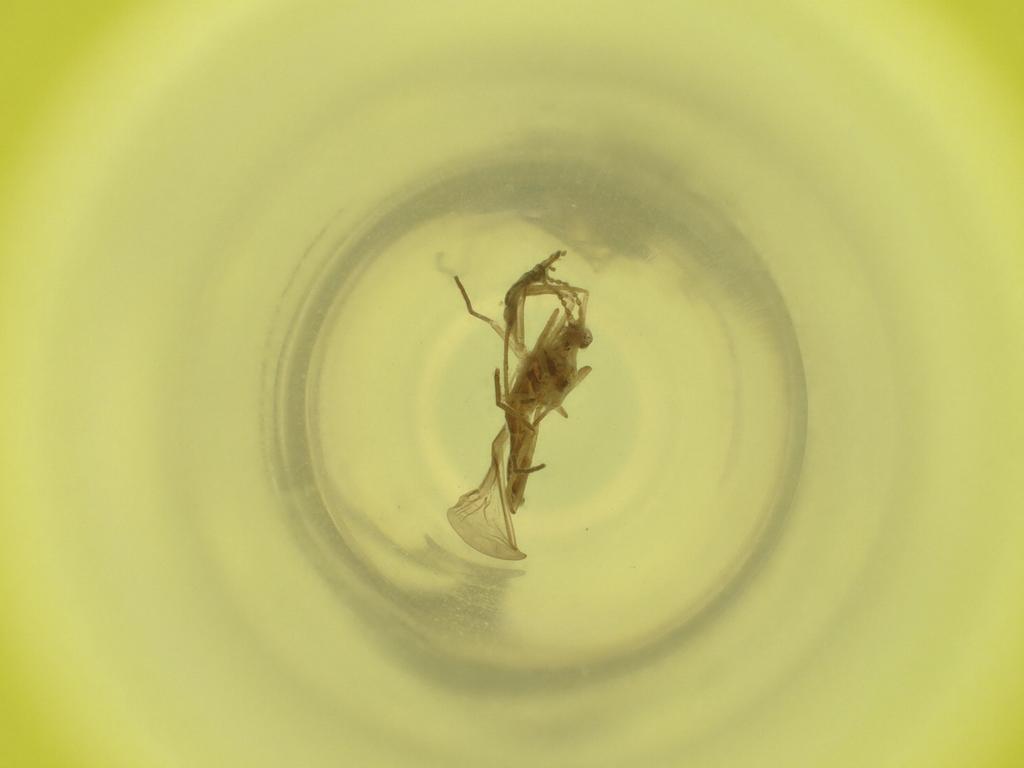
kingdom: Animalia
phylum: Arthropoda
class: Insecta
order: Diptera
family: Cecidomyiidae
